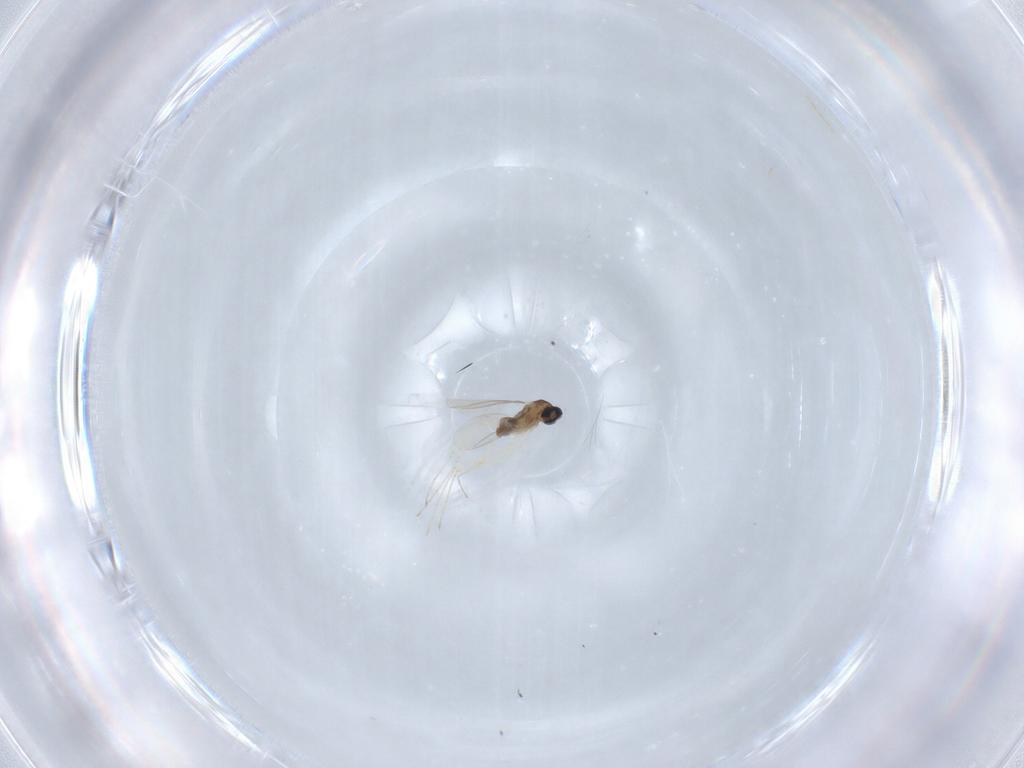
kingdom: Animalia
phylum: Arthropoda
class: Insecta
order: Diptera
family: Cecidomyiidae
